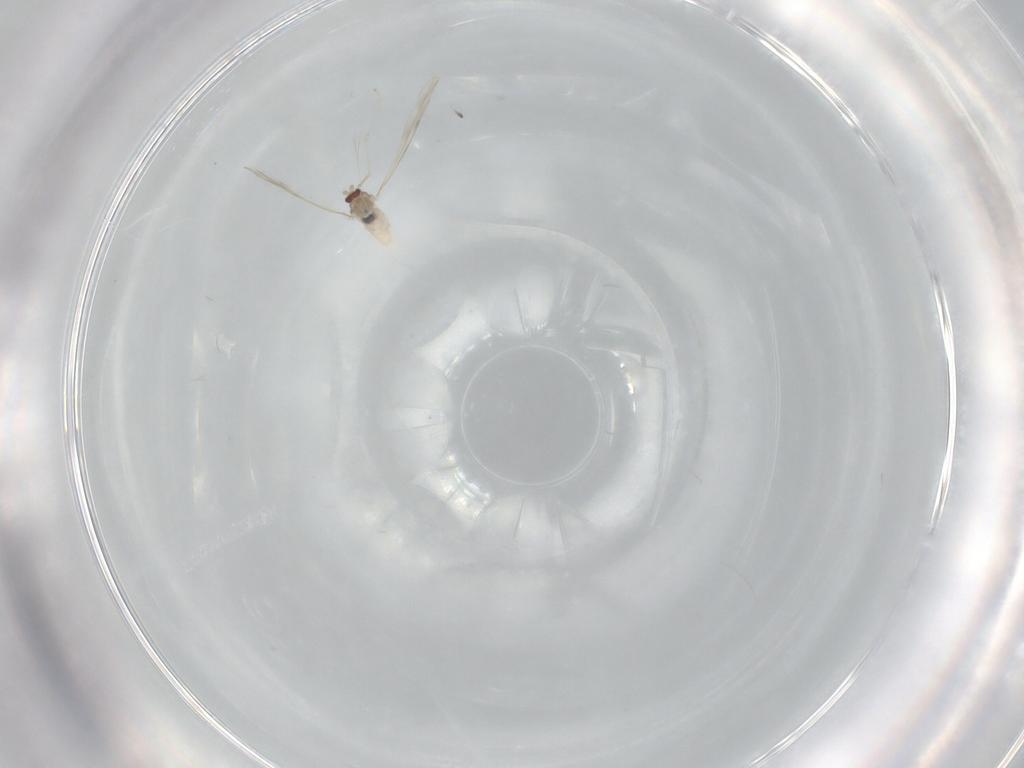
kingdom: Animalia
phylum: Arthropoda
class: Insecta
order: Diptera
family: Cecidomyiidae
